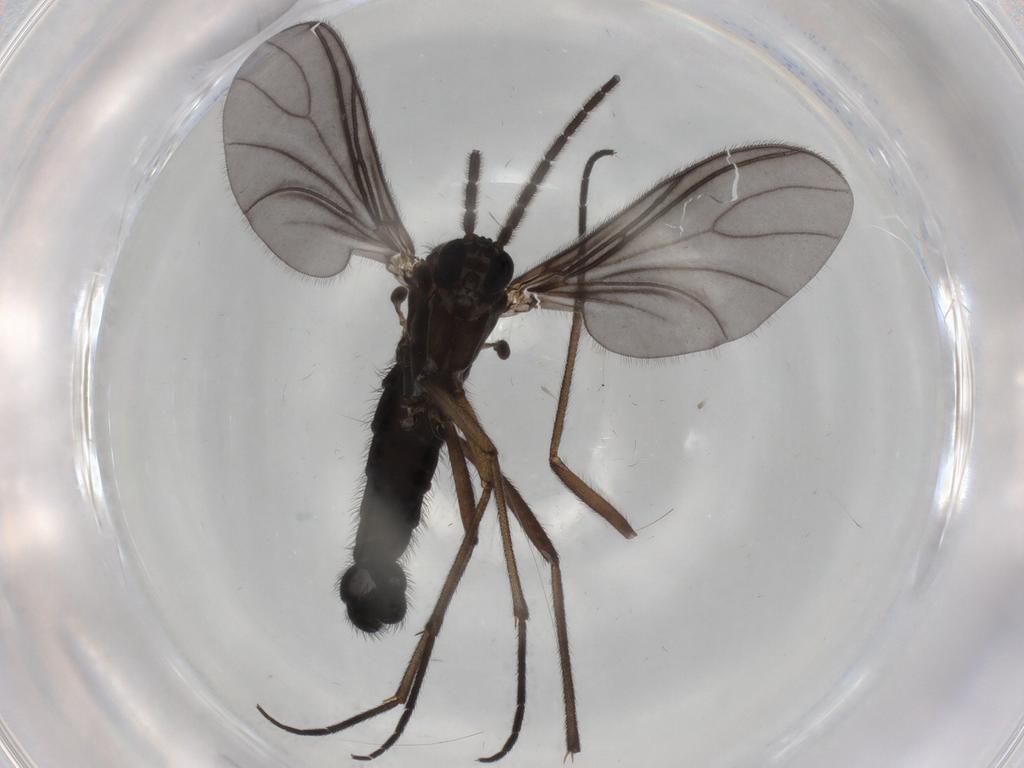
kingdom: Animalia
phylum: Arthropoda
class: Insecta
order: Diptera
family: Sciaridae
